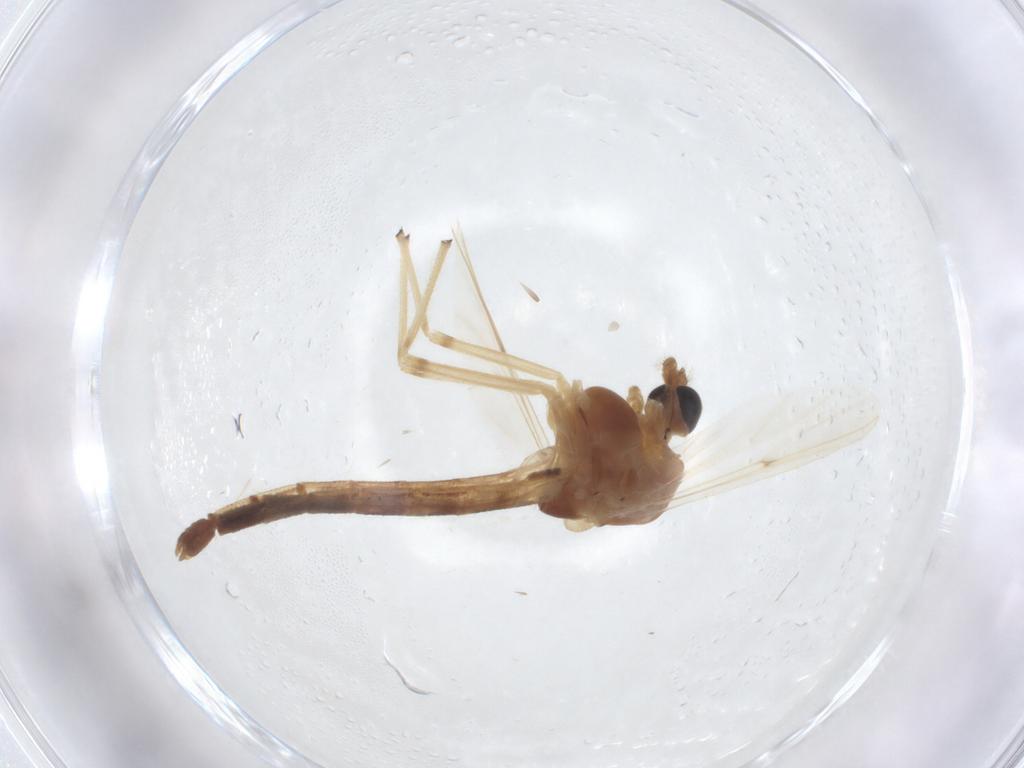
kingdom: Animalia
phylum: Arthropoda
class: Insecta
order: Diptera
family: Chironomidae
